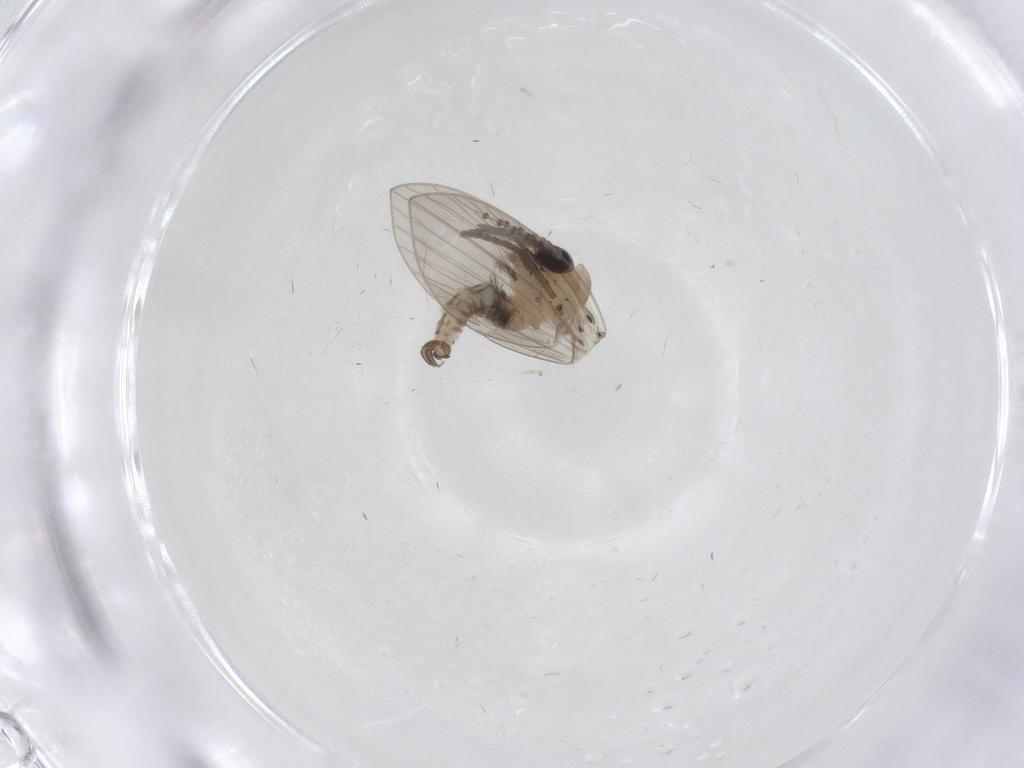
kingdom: Animalia
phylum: Arthropoda
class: Insecta
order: Diptera
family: Psychodidae
